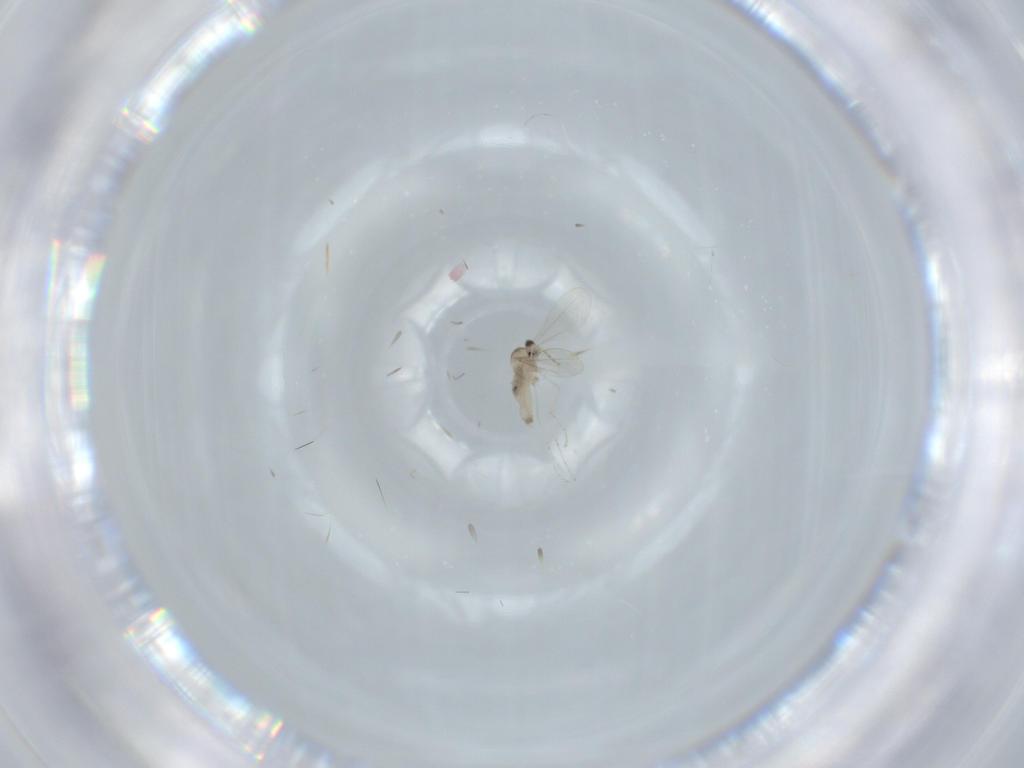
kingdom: Animalia
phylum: Arthropoda
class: Insecta
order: Diptera
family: Cecidomyiidae
